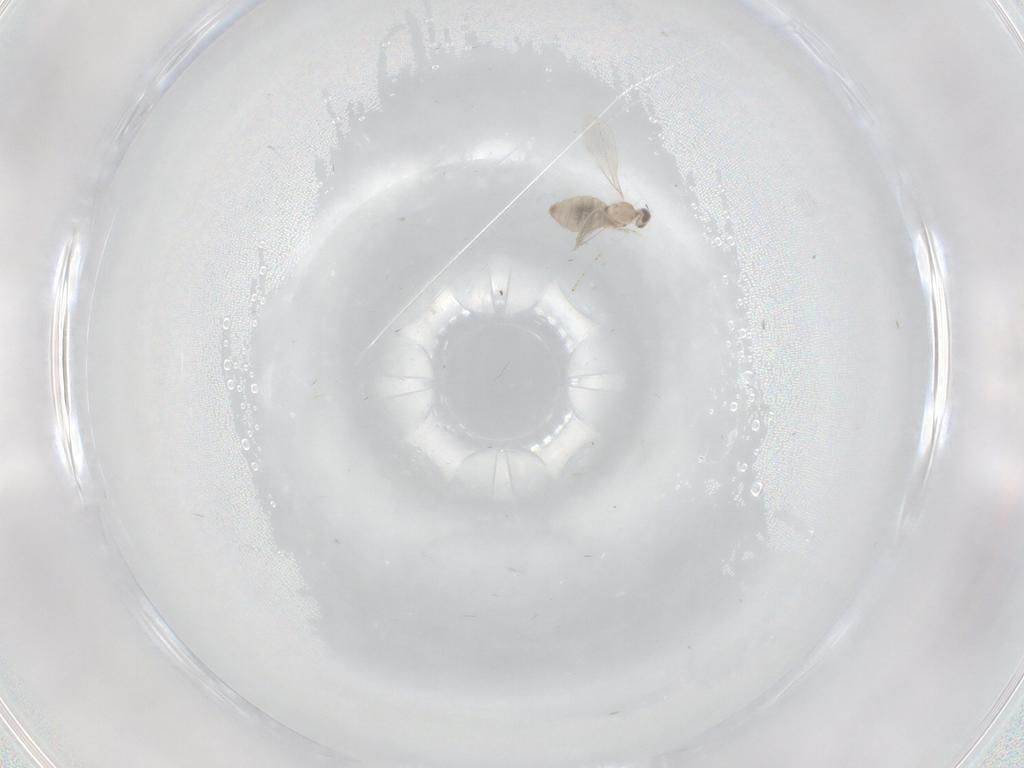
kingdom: Animalia
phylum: Arthropoda
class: Insecta
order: Diptera
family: Cecidomyiidae
